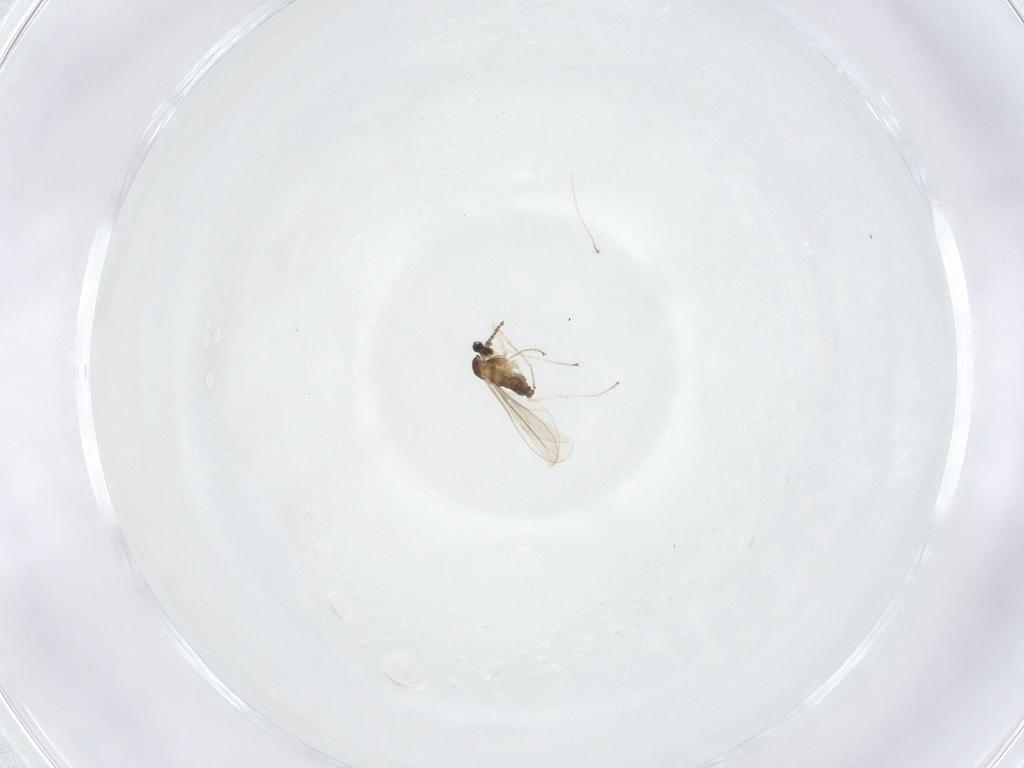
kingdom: Animalia
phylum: Arthropoda
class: Insecta
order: Diptera
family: Cecidomyiidae
